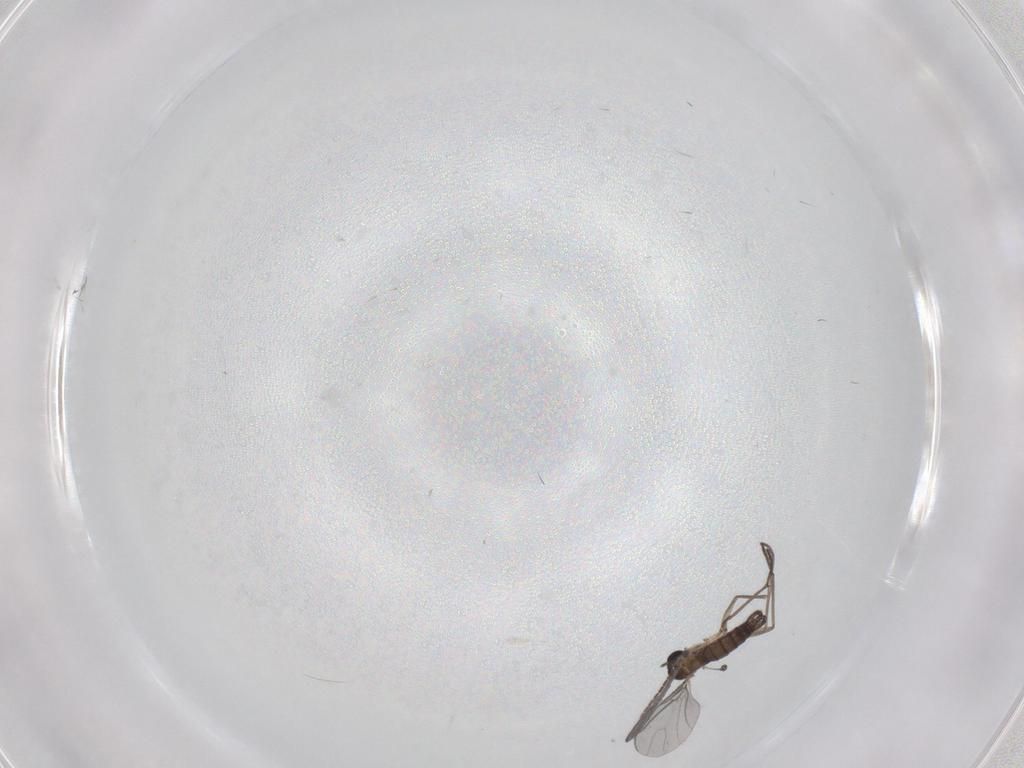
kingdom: Animalia
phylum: Arthropoda
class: Insecta
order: Diptera
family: Sciaridae
